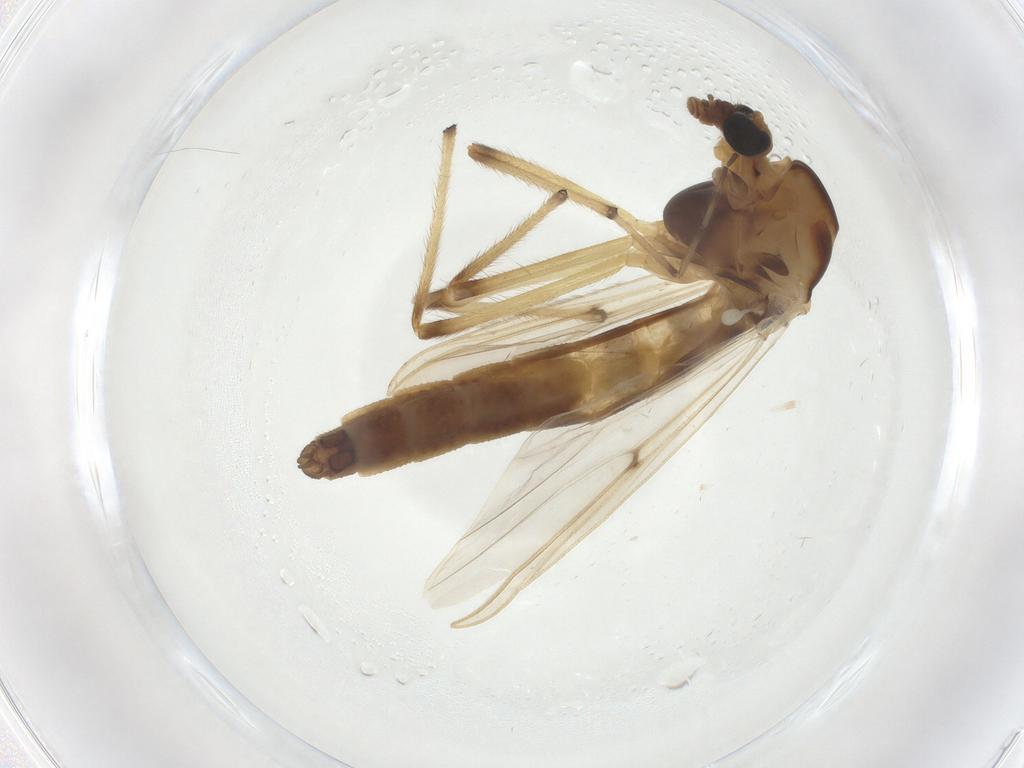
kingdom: Animalia
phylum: Arthropoda
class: Insecta
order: Diptera
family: Chironomidae
